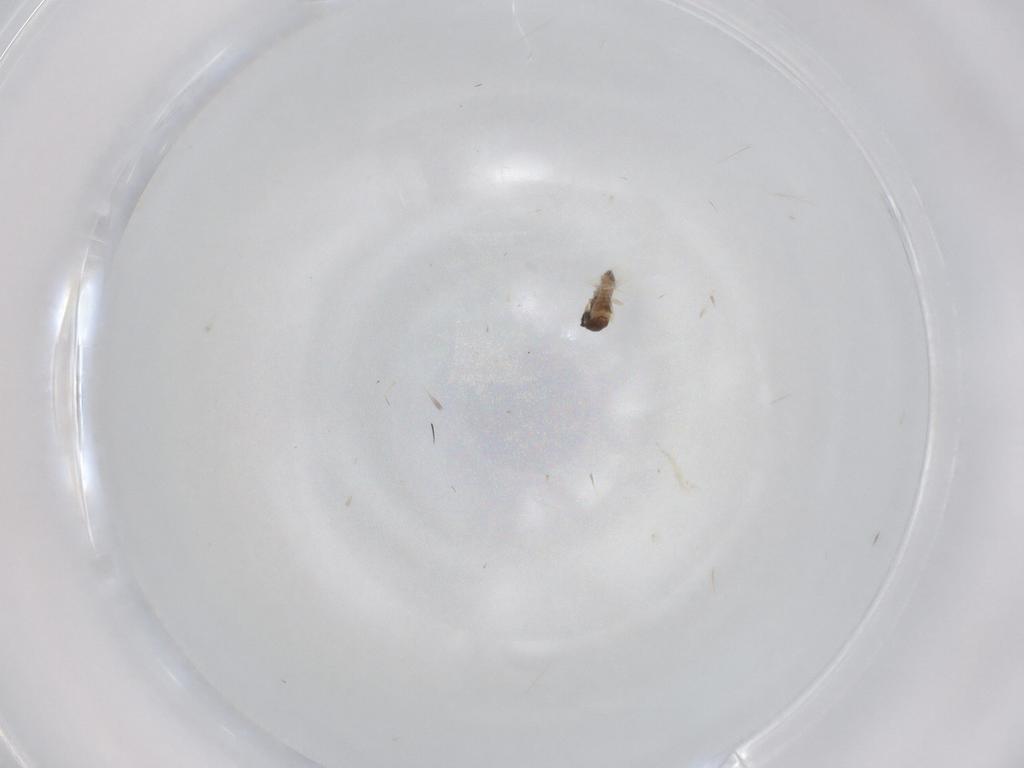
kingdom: Animalia
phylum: Arthropoda
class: Insecta
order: Diptera
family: Cecidomyiidae
